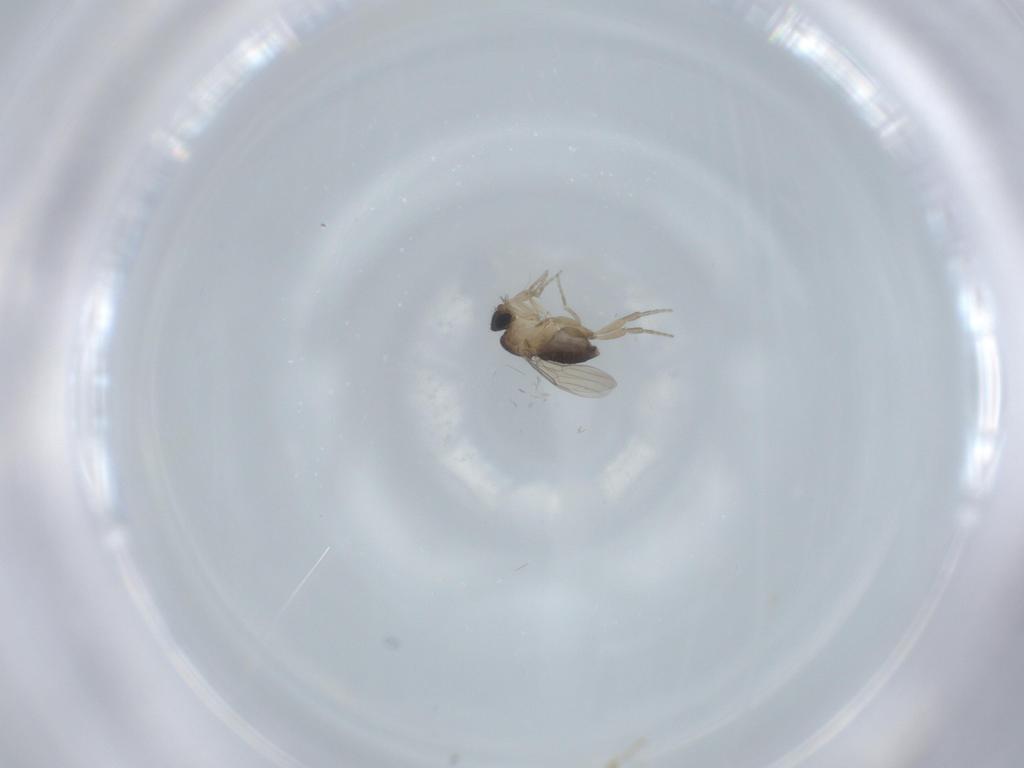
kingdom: Animalia
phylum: Arthropoda
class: Insecta
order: Diptera
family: Phoridae
